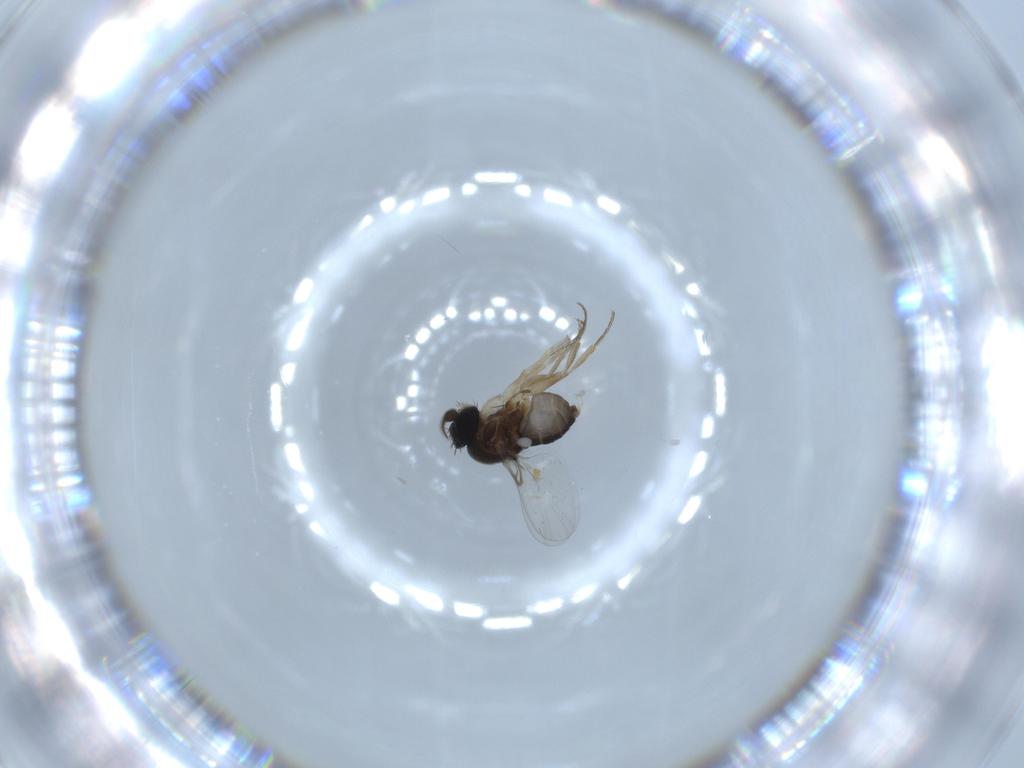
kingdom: Animalia
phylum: Arthropoda
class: Insecta
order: Diptera
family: Phoridae
